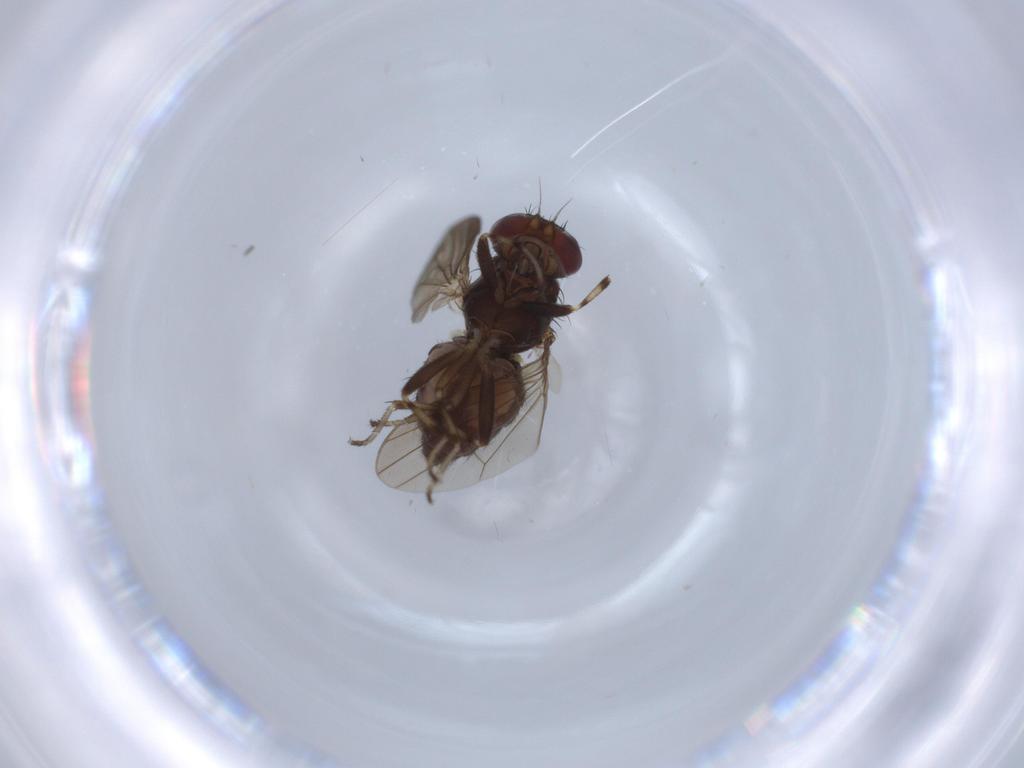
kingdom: Animalia
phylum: Arthropoda
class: Insecta
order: Diptera
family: Heleomyzidae
